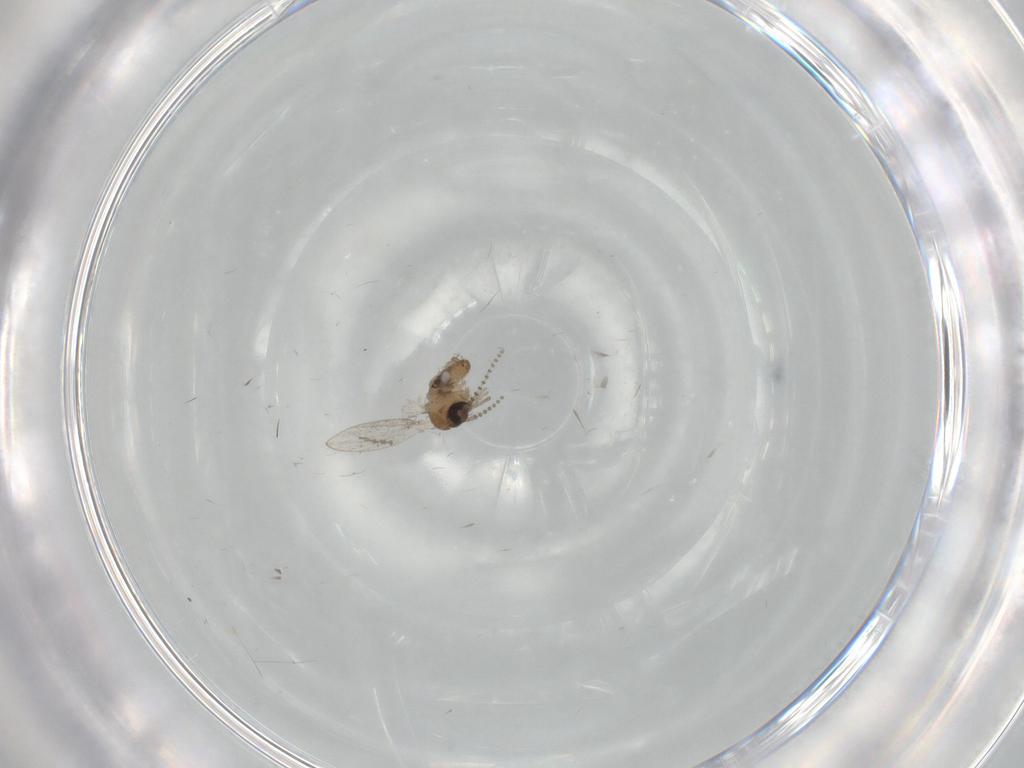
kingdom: Animalia
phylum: Arthropoda
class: Insecta
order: Diptera
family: Psychodidae
